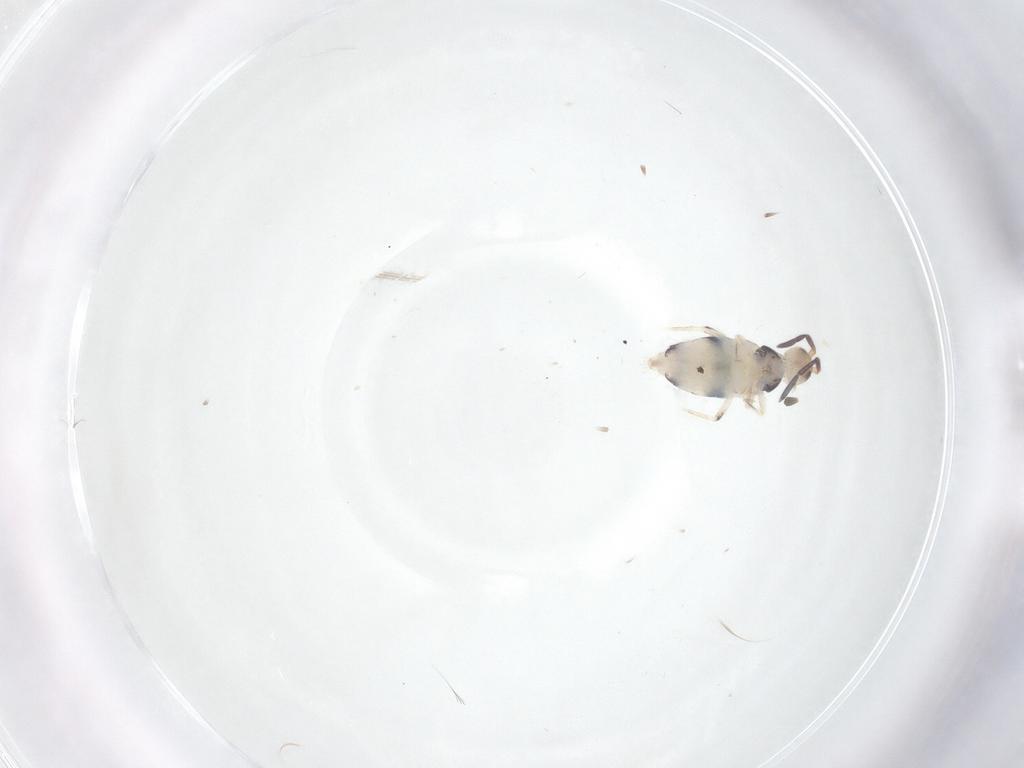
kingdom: Animalia
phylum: Arthropoda
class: Collembola
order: Entomobryomorpha
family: Entomobryidae
